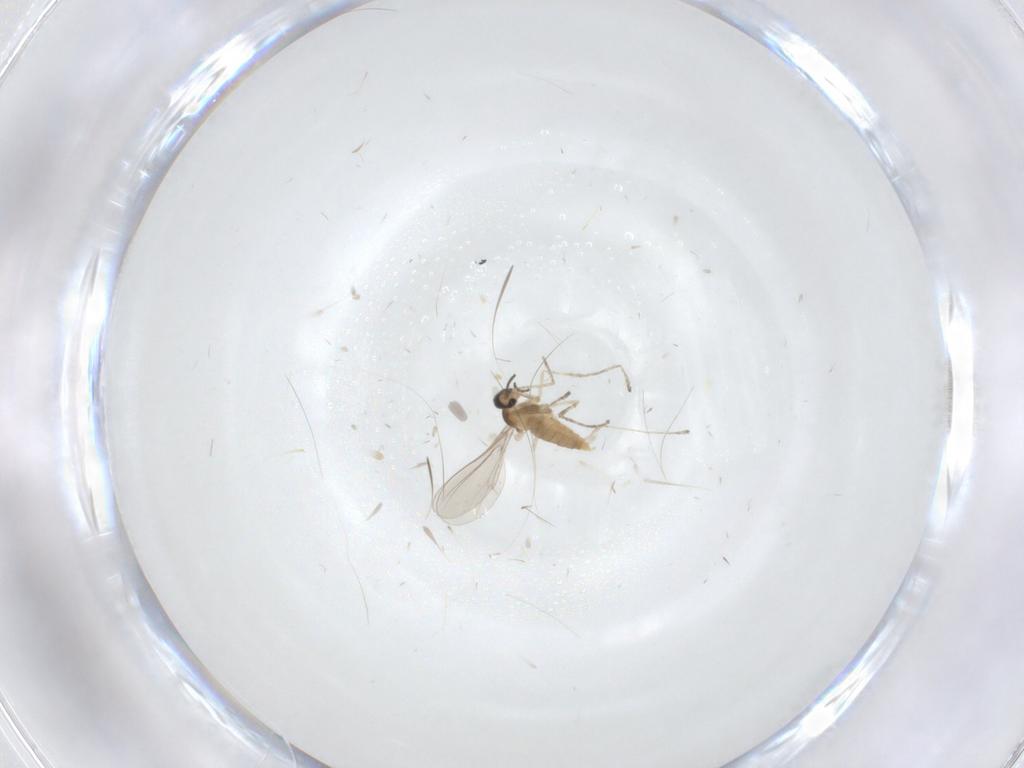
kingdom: Animalia
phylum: Arthropoda
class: Insecta
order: Diptera
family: Cecidomyiidae
